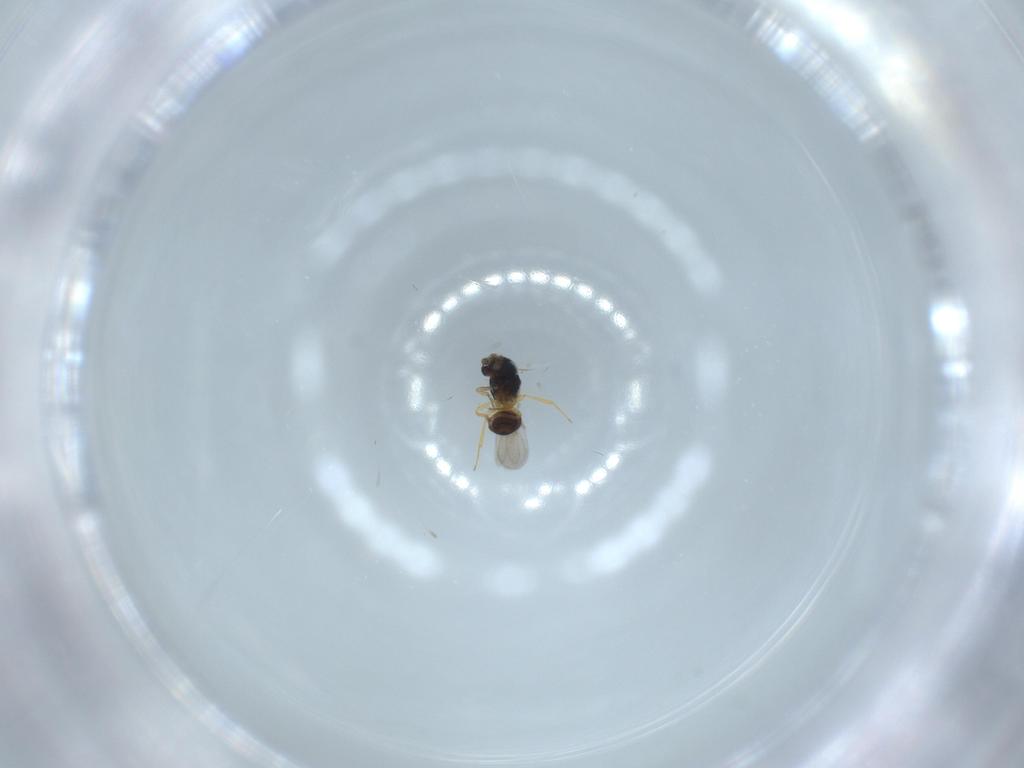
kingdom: Animalia
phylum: Arthropoda
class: Insecta
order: Hymenoptera
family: Scelionidae
